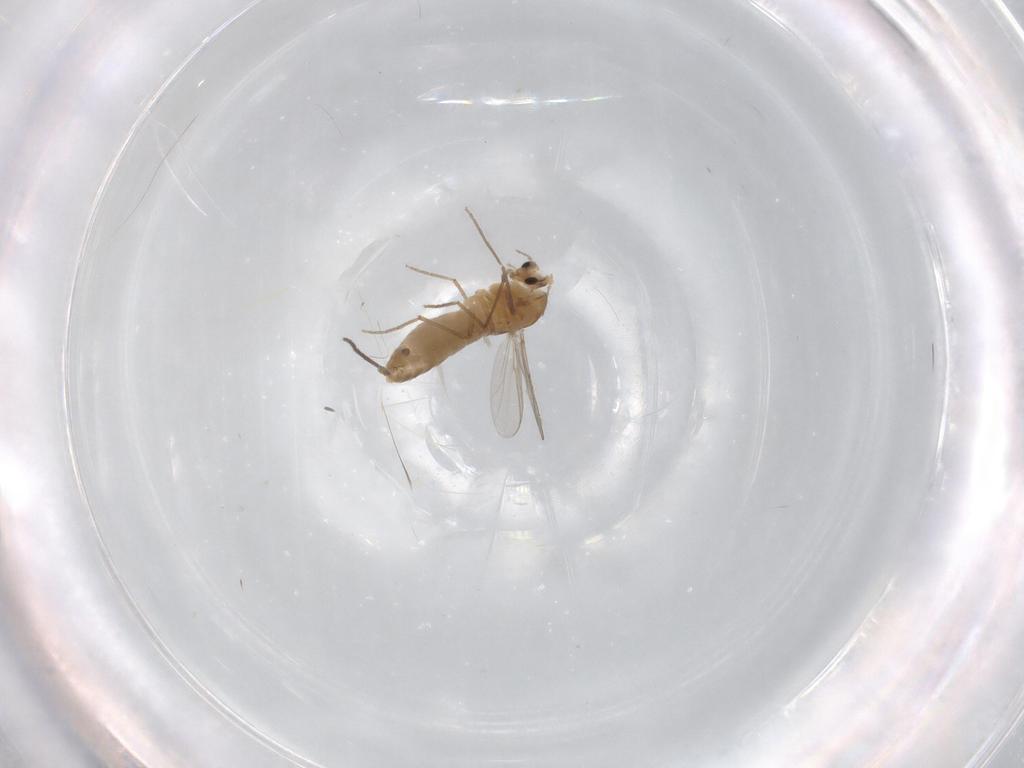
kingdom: Animalia
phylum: Arthropoda
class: Insecta
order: Diptera
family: Chironomidae
